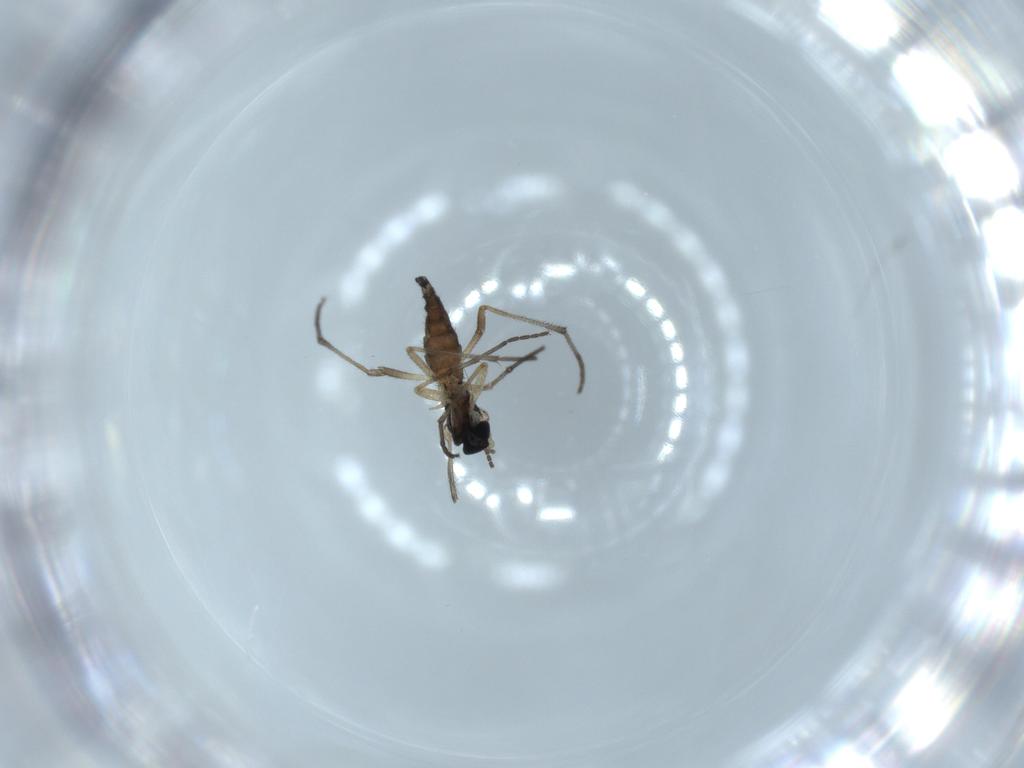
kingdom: Animalia
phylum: Arthropoda
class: Insecta
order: Diptera
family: Sciaridae
